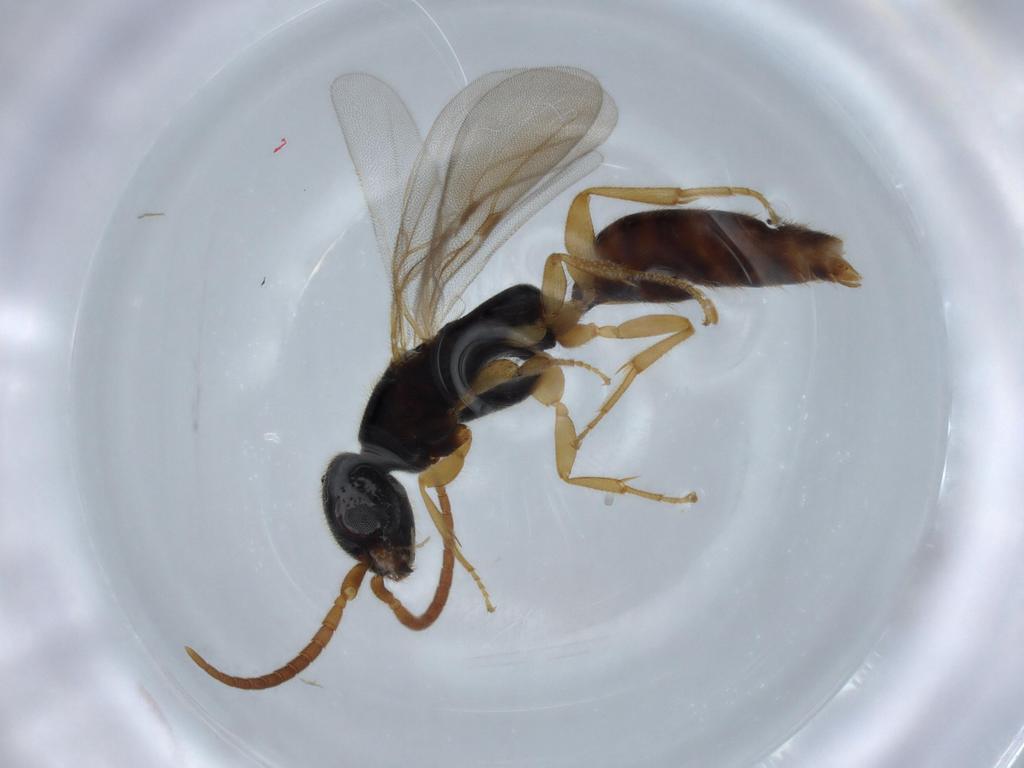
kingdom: Animalia
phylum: Arthropoda
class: Insecta
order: Hymenoptera
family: Bethylidae
